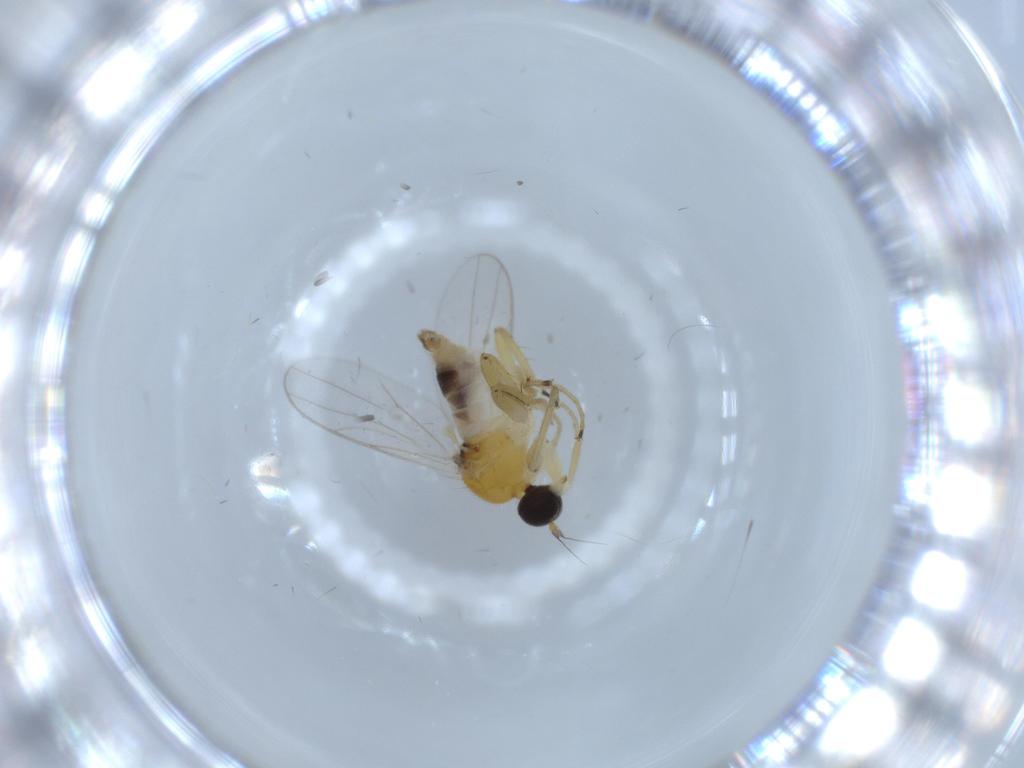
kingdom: Animalia
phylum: Arthropoda
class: Insecta
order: Diptera
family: Hybotidae
